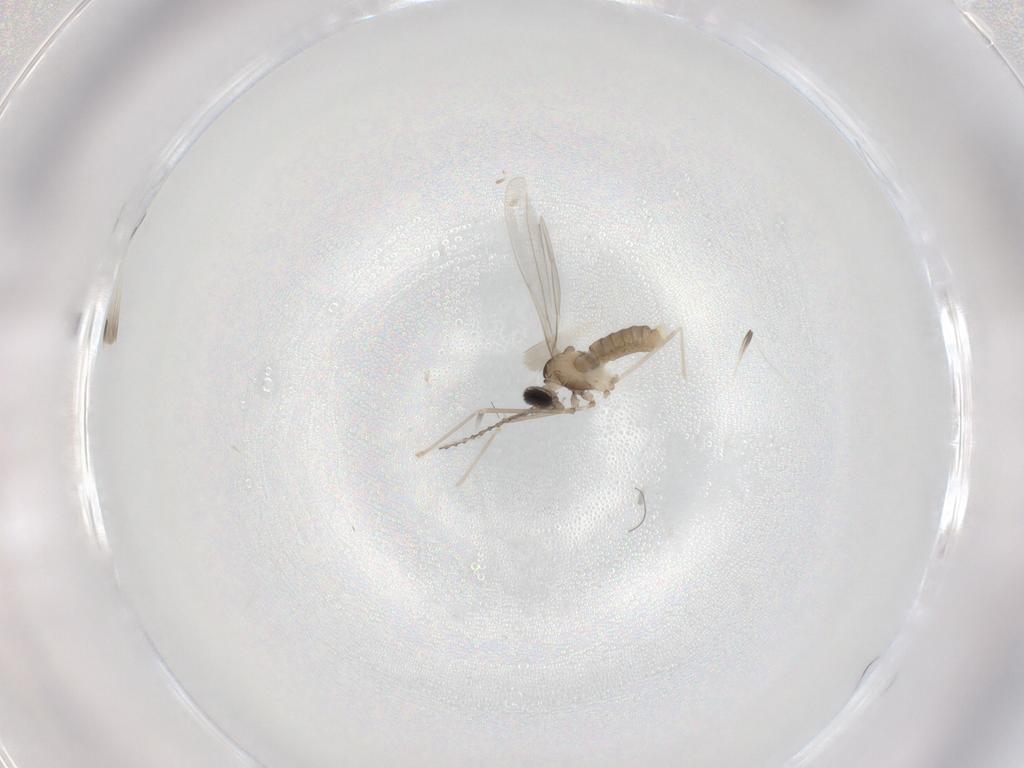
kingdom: Animalia
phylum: Arthropoda
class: Insecta
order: Diptera
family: Cecidomyiidae
